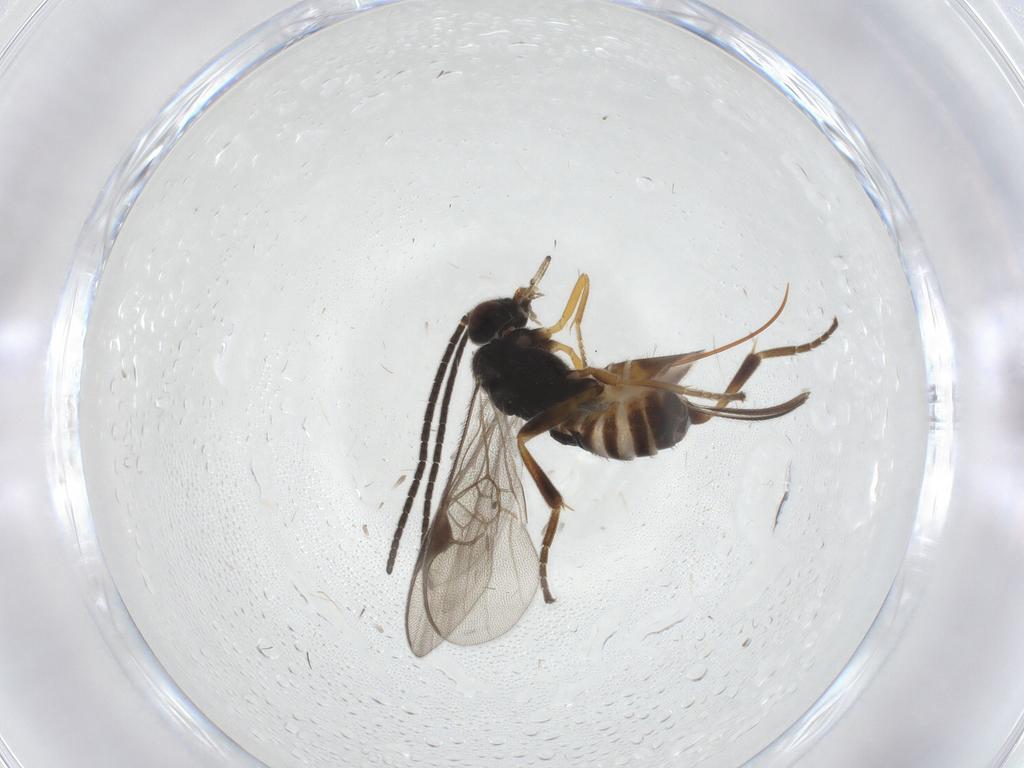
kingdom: Animalia
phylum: Arthropoda
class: Insecta
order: Hymenoptera
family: Braconidae
